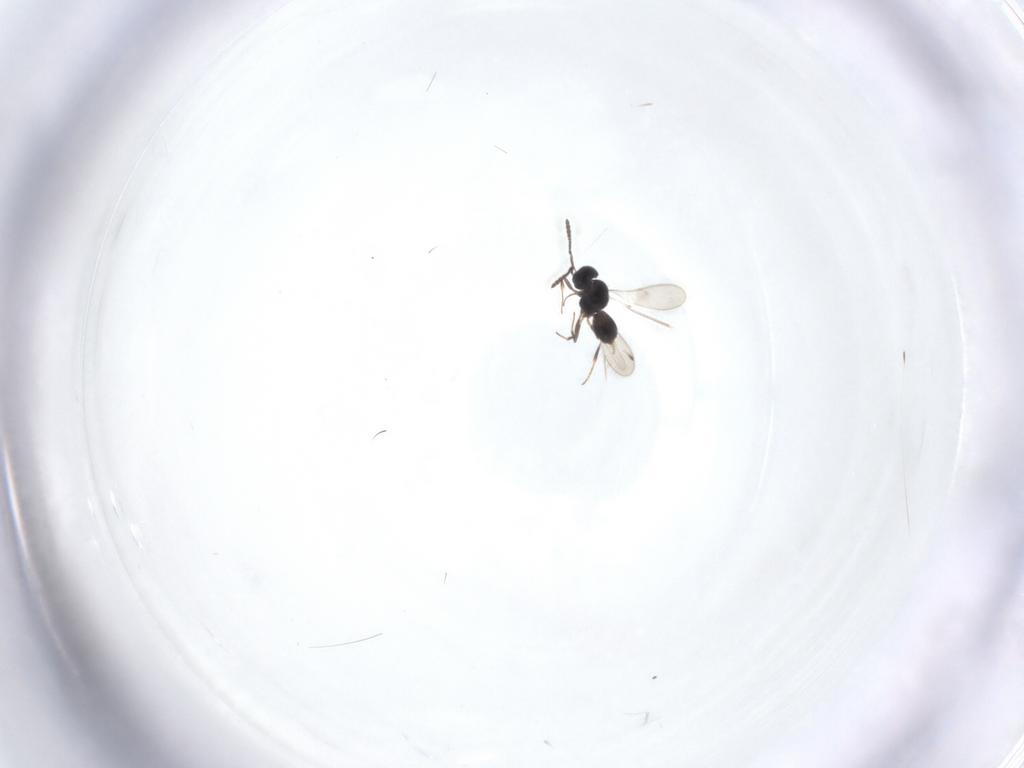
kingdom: Animalia
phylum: Arthropoda
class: Insecta
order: Hymenoptera
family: Scelionidae
